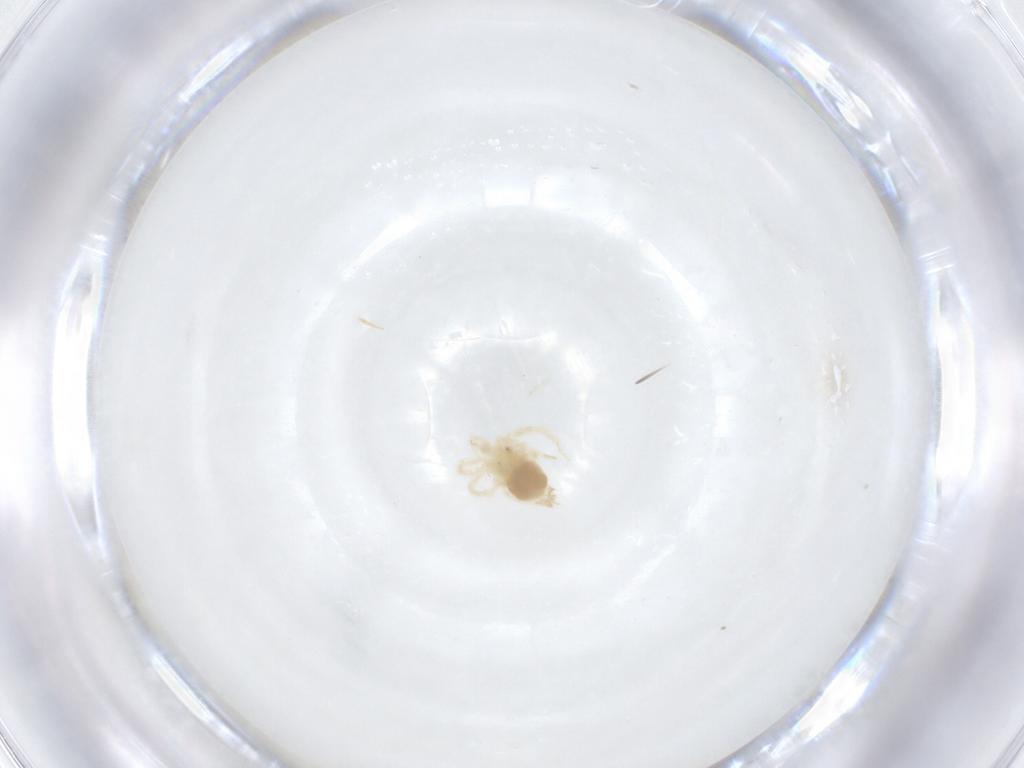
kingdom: Animalia
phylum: Arthropoda
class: Arachnida
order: Trombidiformes
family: Anystidae
